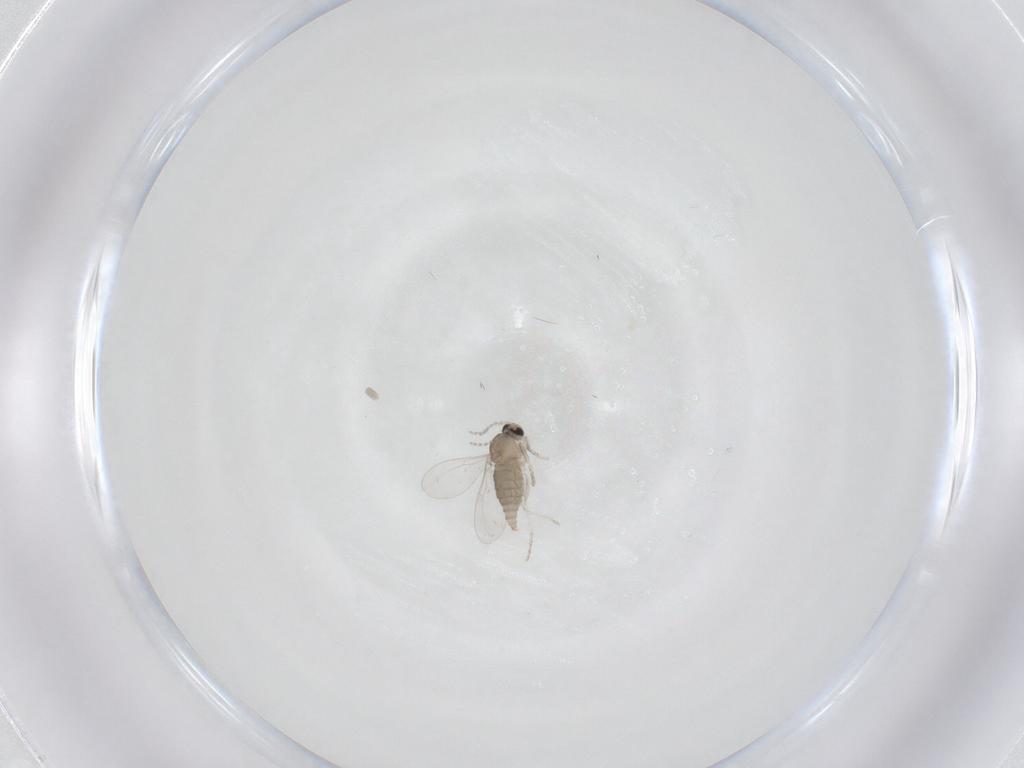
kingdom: Animalia
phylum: Arthropoda
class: Insecta
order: Diptera
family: Cecidomyiidae
